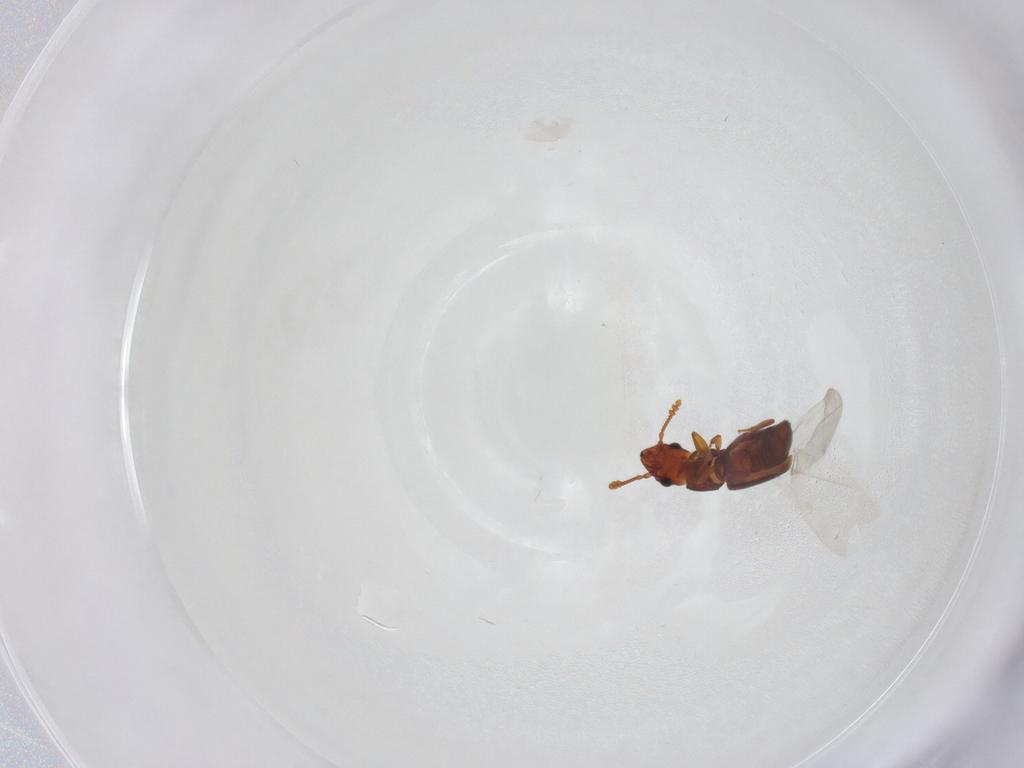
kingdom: Animalia
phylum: Arthropoda
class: Insecta
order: Coleoptera
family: Smicripidae
